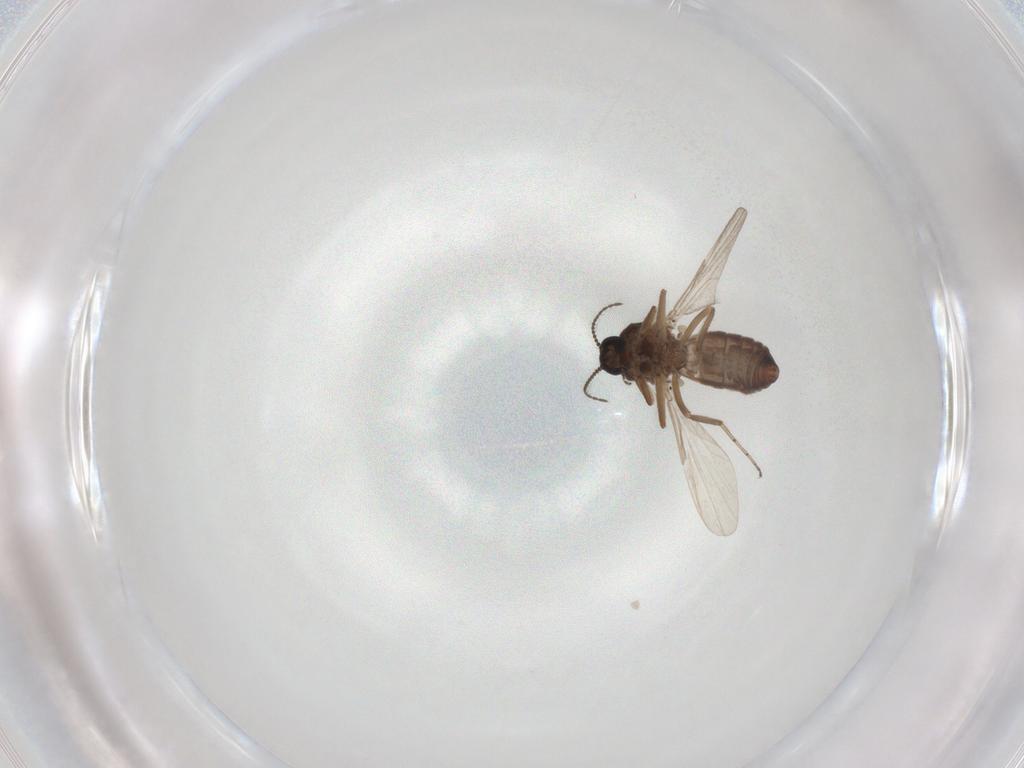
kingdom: Animalia
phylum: Arthropoda
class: Insecta
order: Diptera
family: Ceratopogonidae
